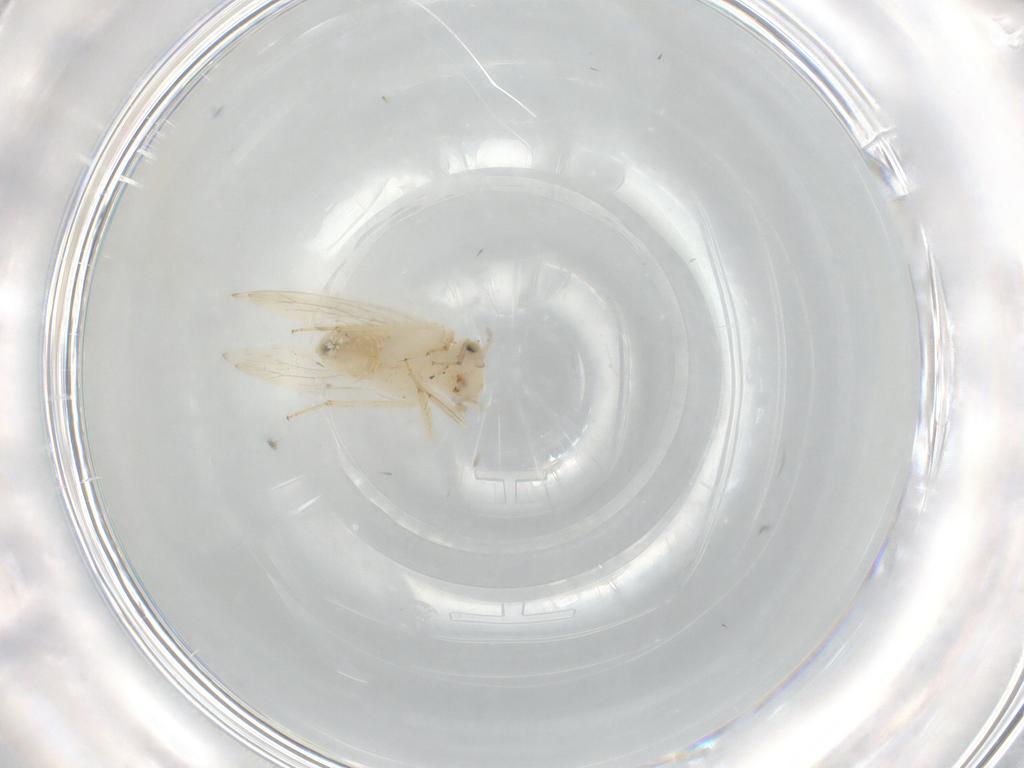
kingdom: Animalia
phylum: Arthropoda
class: Insecta
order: Psocodea
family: Lepidopsocidae
